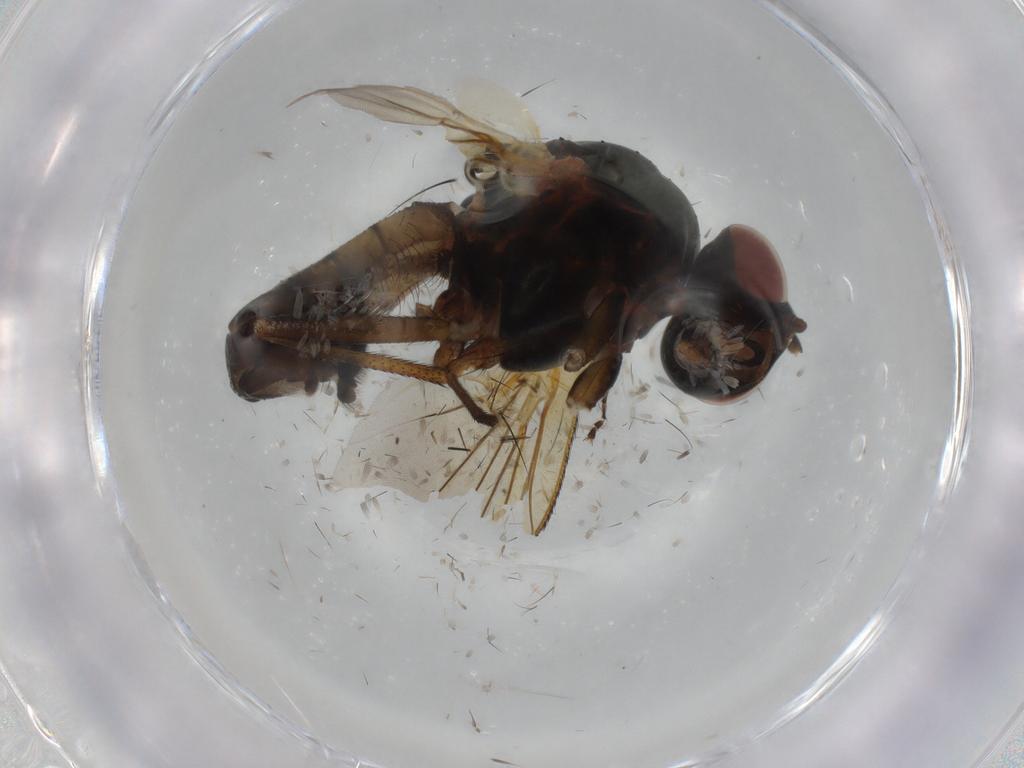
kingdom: Animalia
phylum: Arthropoda
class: Insecta
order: Diptera
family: Anthomyiidae
